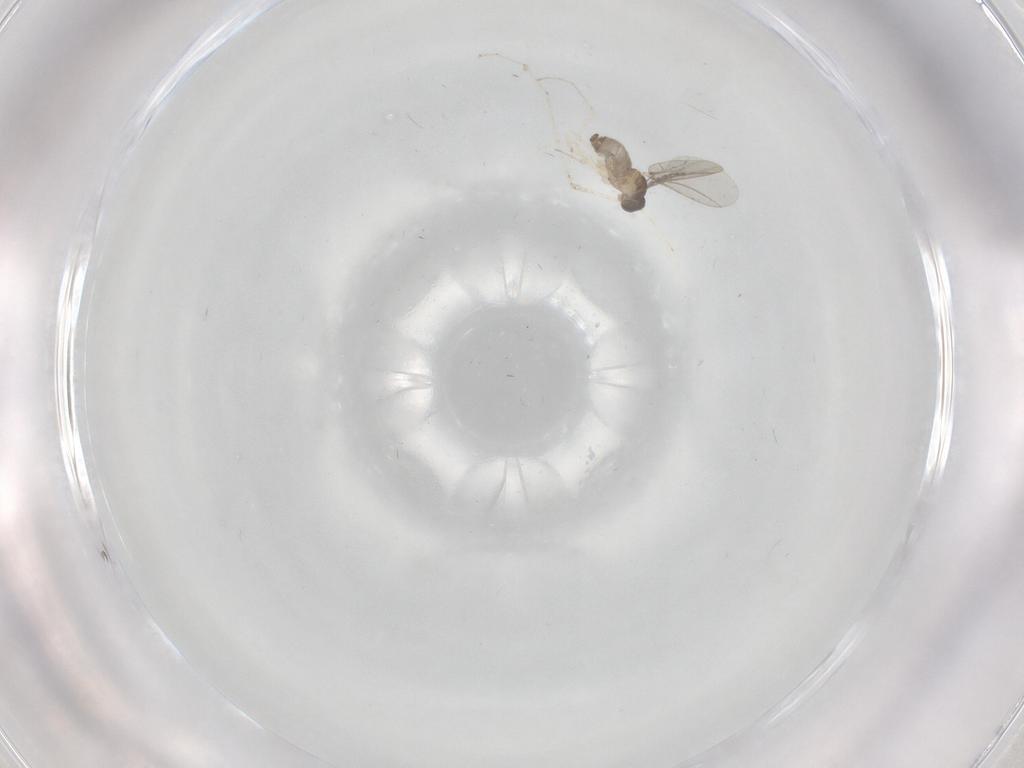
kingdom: Animalia
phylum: Arthropoda
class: Insecta
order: Diptera
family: Cecidomyiidae
